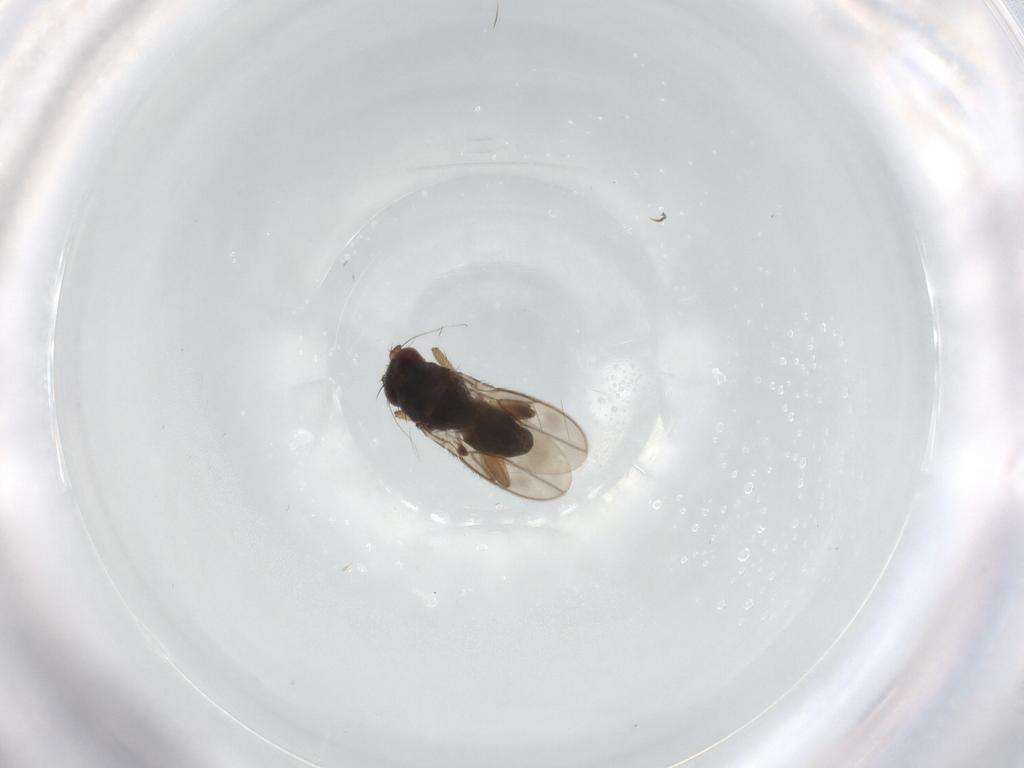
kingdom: Animalia
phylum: Arthropoda
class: Insecta
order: Diptera
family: Sphaeroceridae
